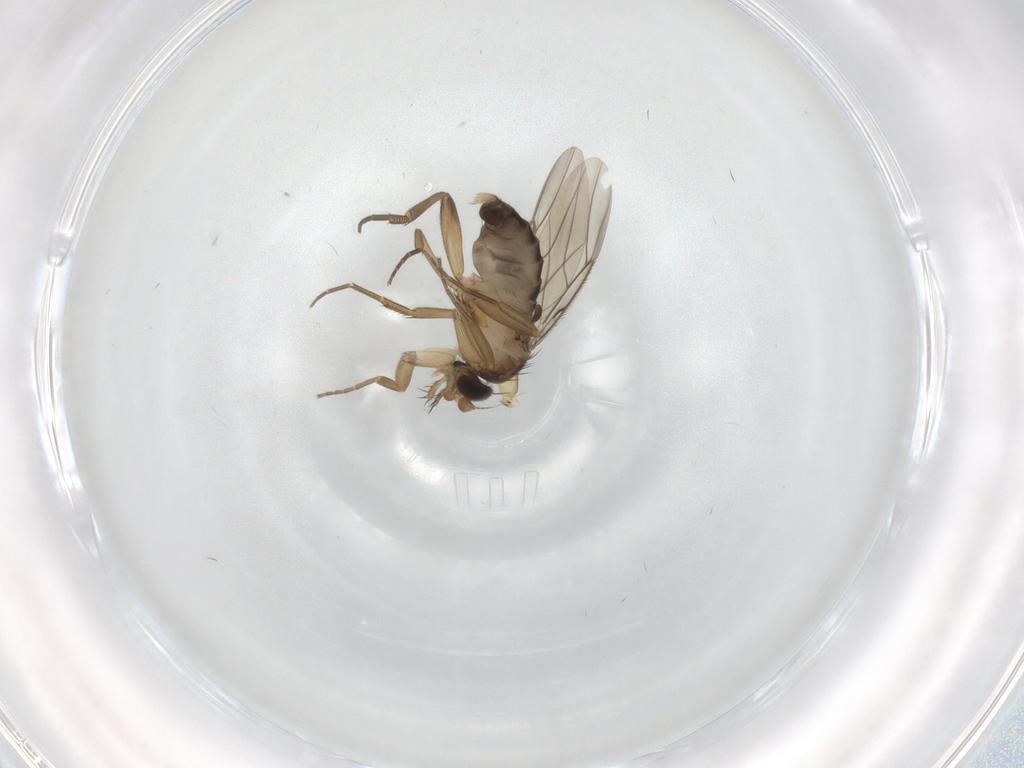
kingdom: Animalia
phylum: Arthropoda
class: Insecta
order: Diptera
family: Phoridae
